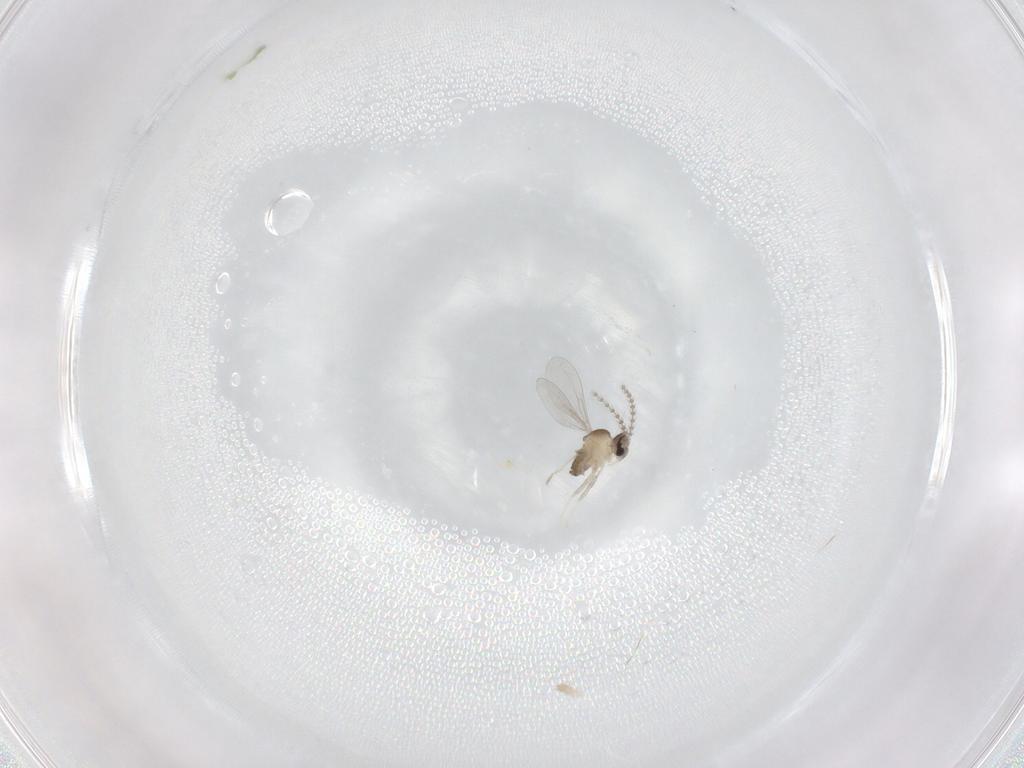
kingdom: Animalia
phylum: Arthropoda
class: Insecta
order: Diptera
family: Cecidomyiidae
